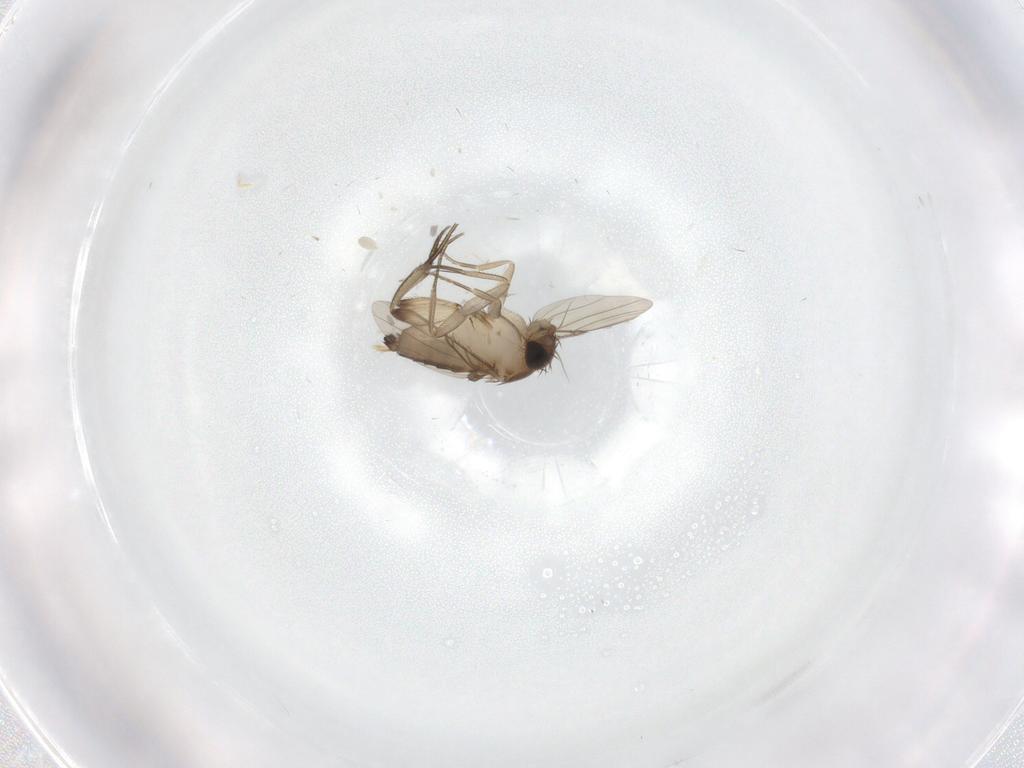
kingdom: Animalia
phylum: Arthropoda
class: Insecta
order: Diptera
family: Phoridae
